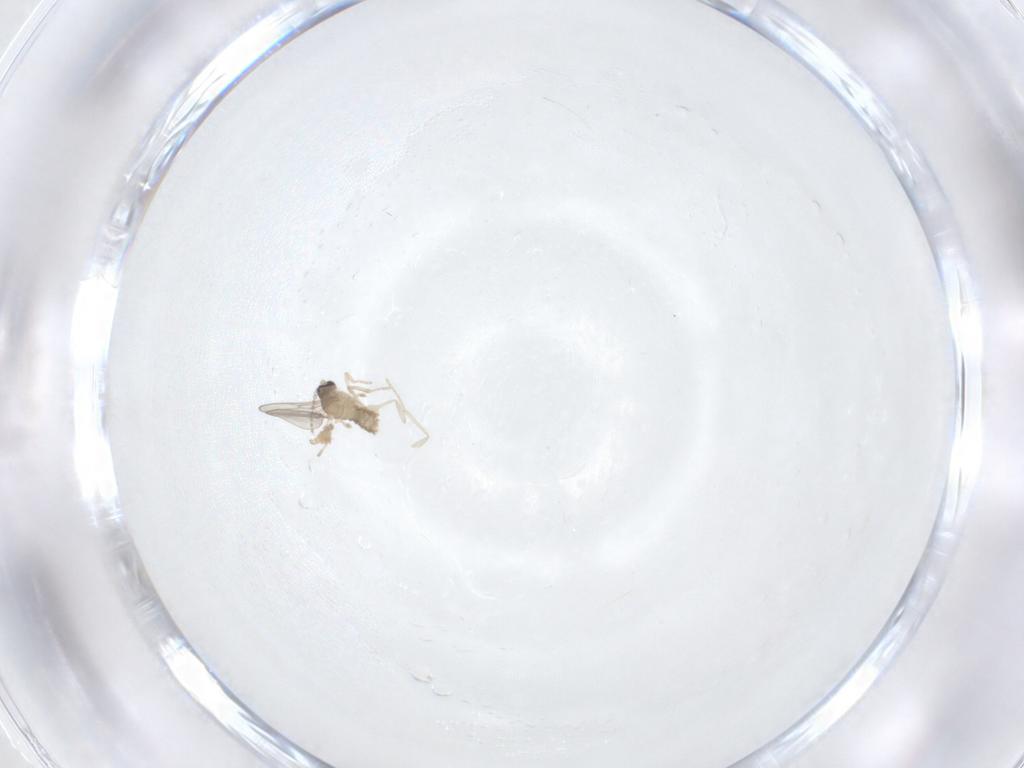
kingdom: Animalia
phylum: Arthropoda
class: Insecta
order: Diptera
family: Cecidomyiidae
